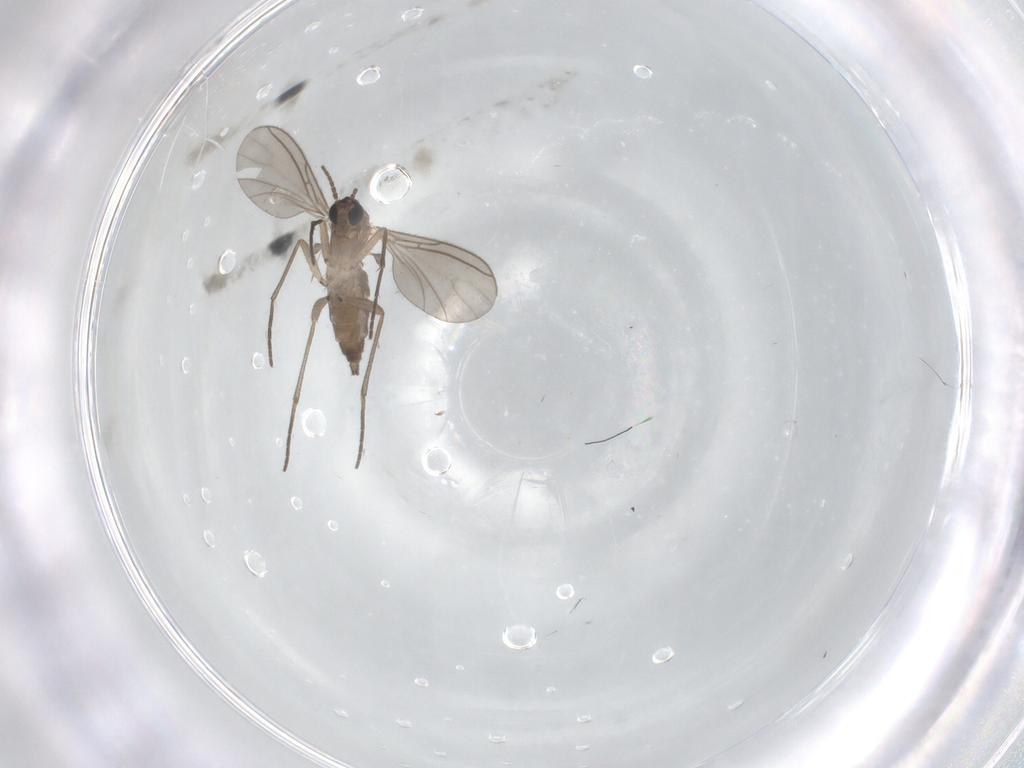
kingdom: Animalia
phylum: Arthropoda
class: Insecta
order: Diptera
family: Sciaridae
